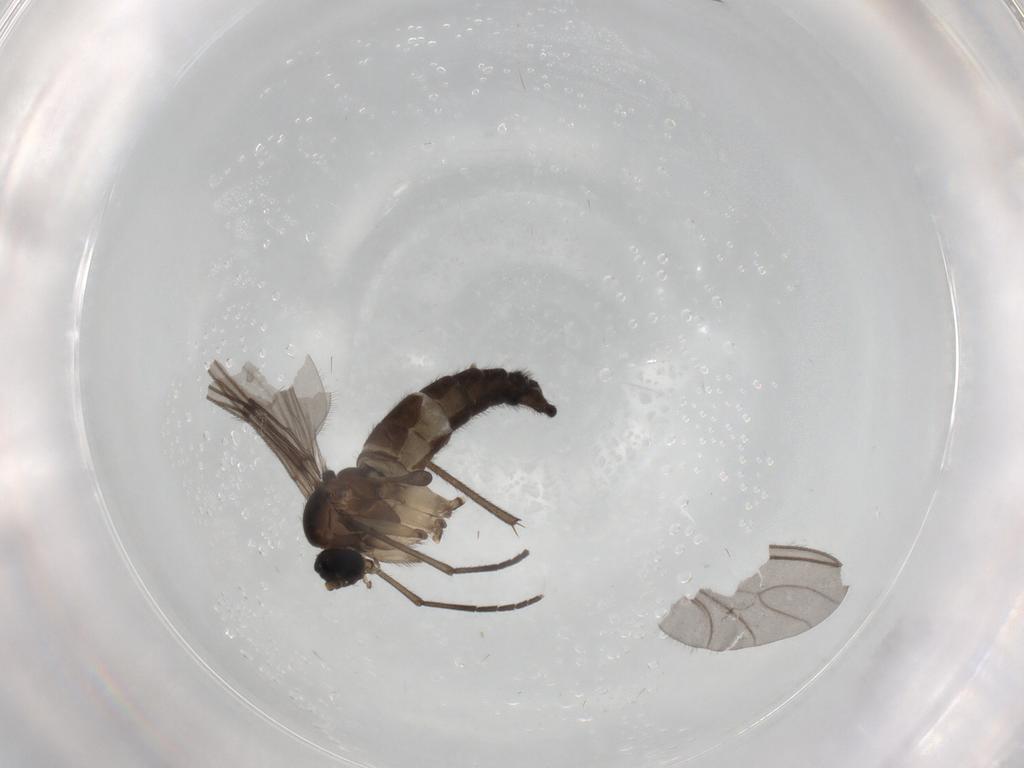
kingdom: Animalia
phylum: Arthropoda
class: Insecta
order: Diptera
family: Sciaridae
